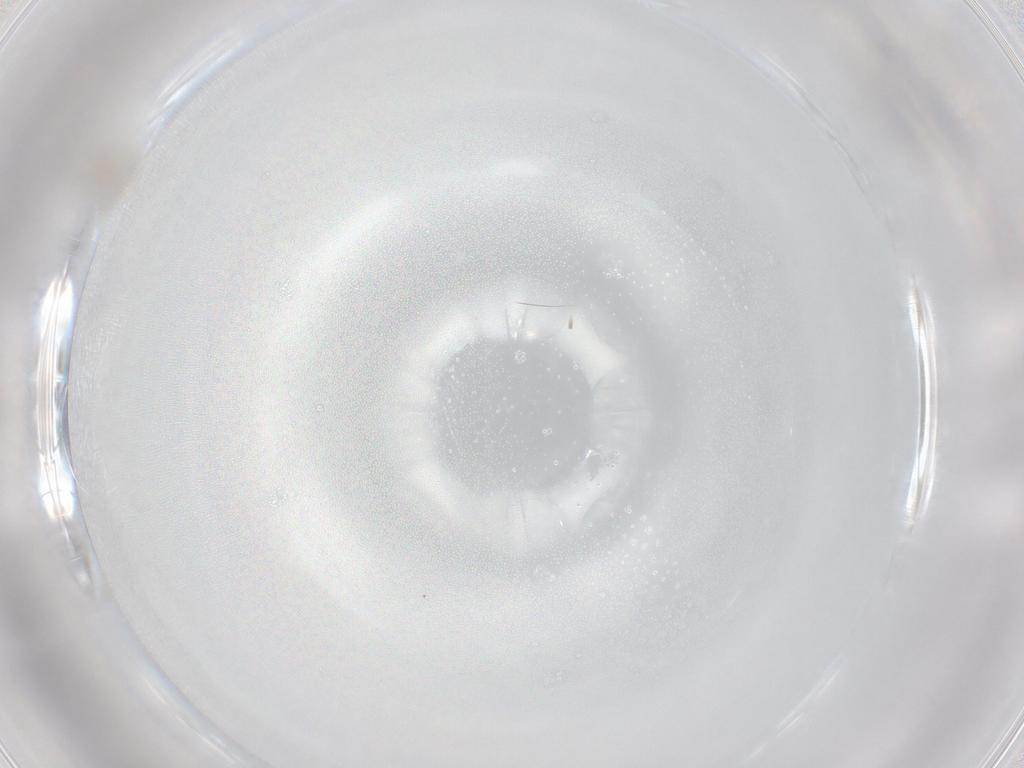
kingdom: Animalia
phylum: Arthropoda
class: Insecta
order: Diptera
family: Cecidomyiidae
